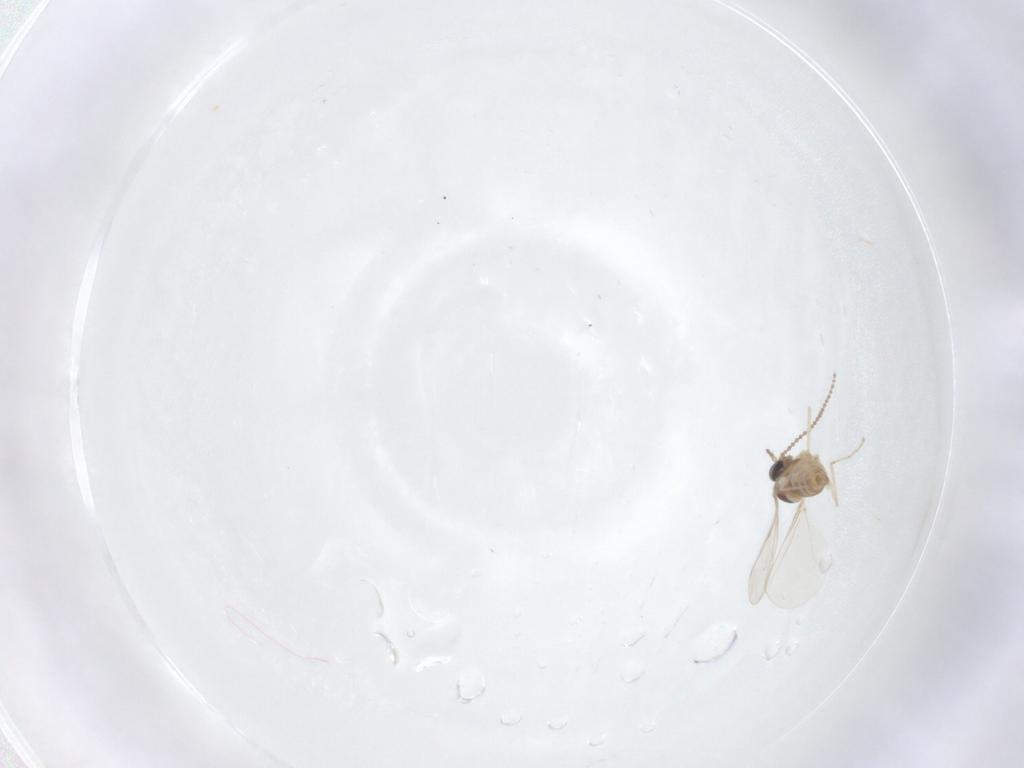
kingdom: Animalia
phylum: Arthropoda
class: Insecta
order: Diptera
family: Cecidomyiidae
